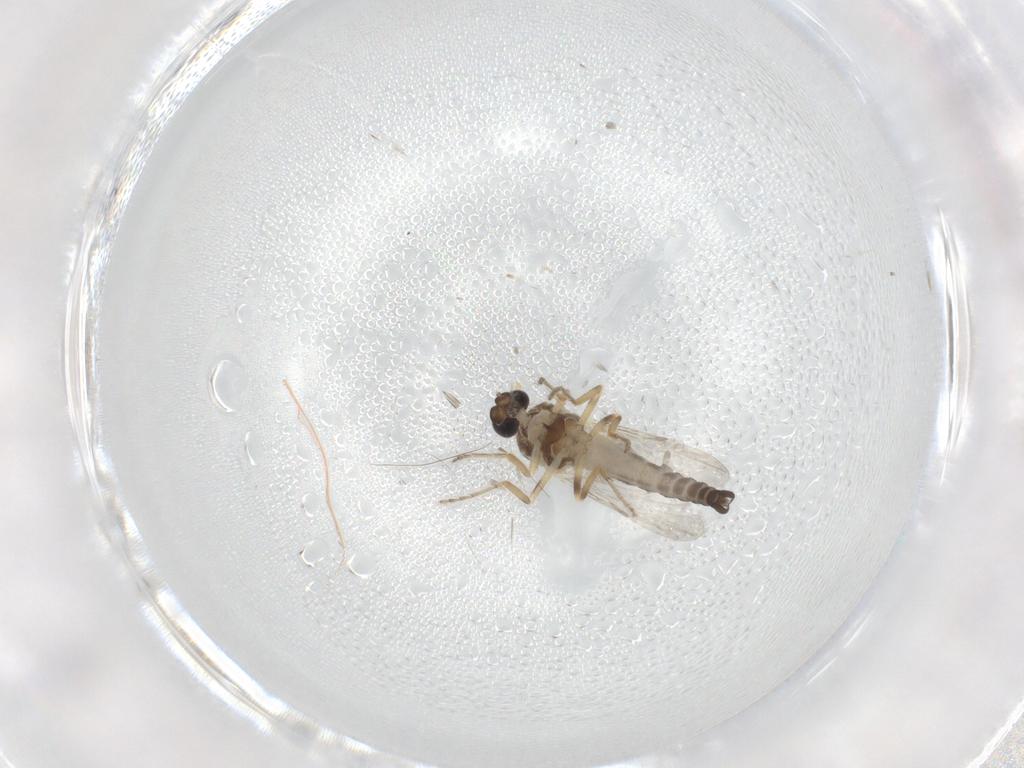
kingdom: Animalia
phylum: Arthropoda
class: Insecta
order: Diptera
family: Ceratopogonidae
